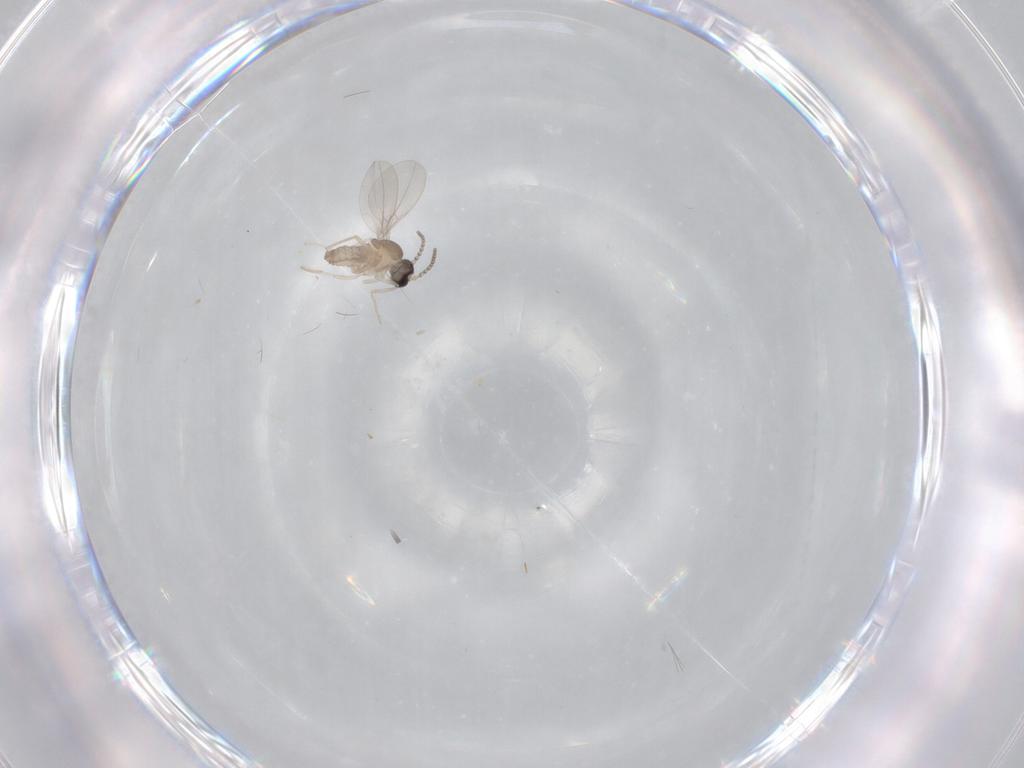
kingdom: Animalia
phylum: Arthropoda
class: Insecta
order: Diptera
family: Cecidomyiidae
